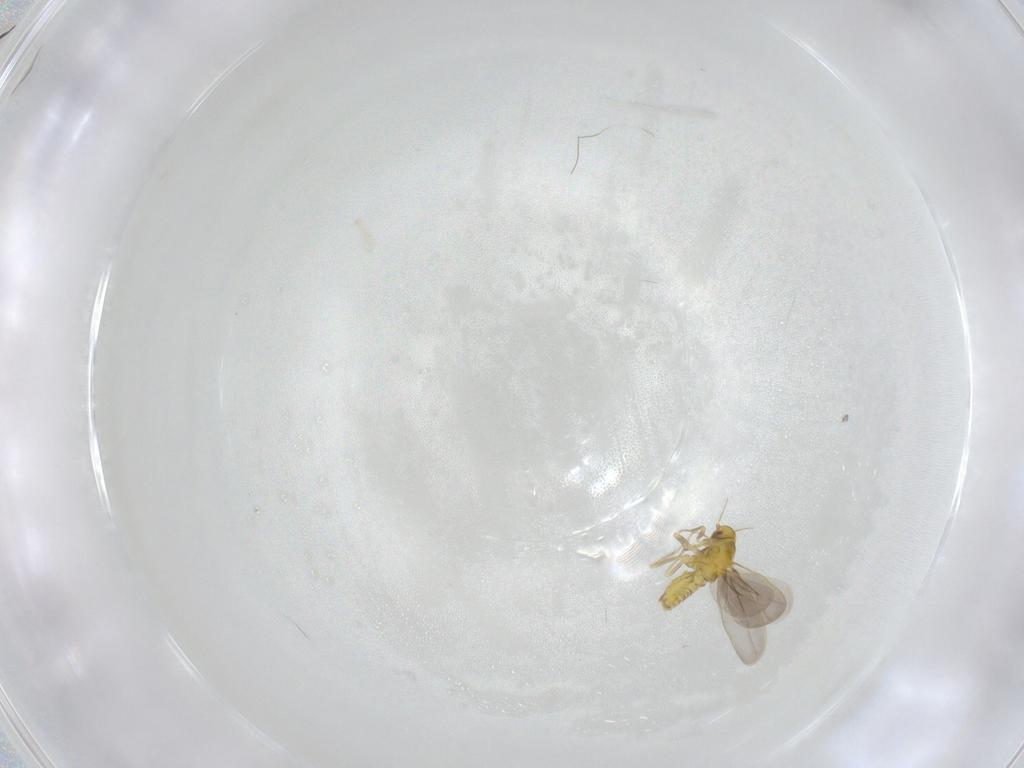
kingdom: Animalia
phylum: Arthropoda
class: Insecta
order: Hemiptera
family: Aleyrodidae
